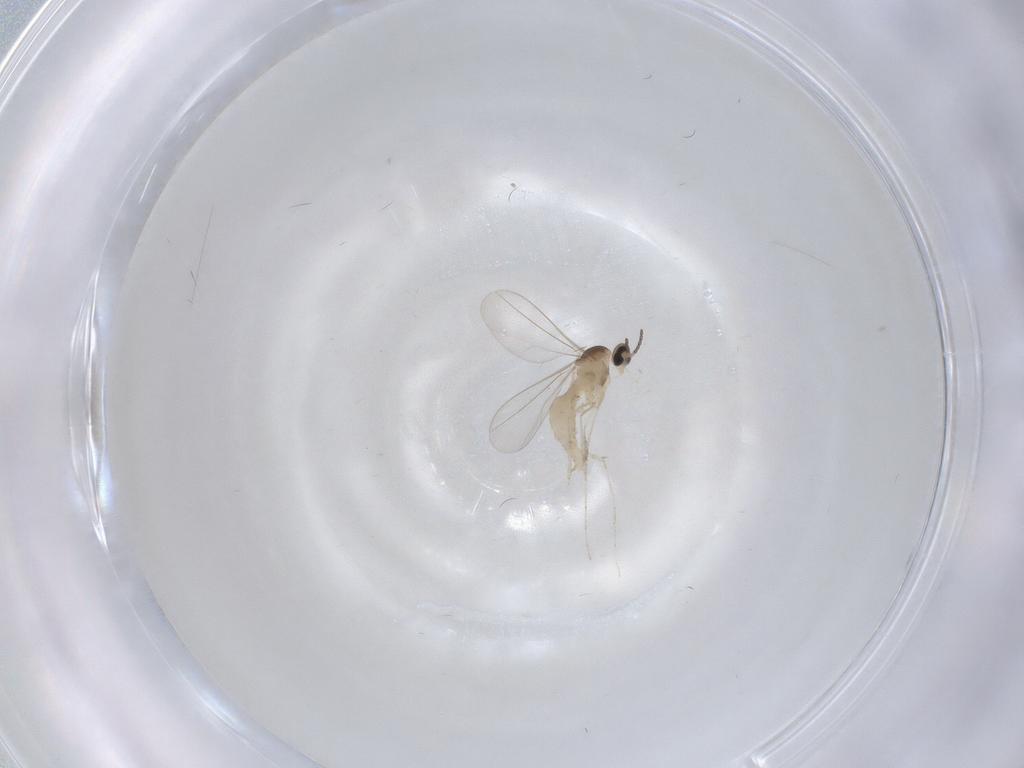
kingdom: Animalia
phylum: Arthropoda
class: Insecta
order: Diptera
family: Cecidomyiidae
